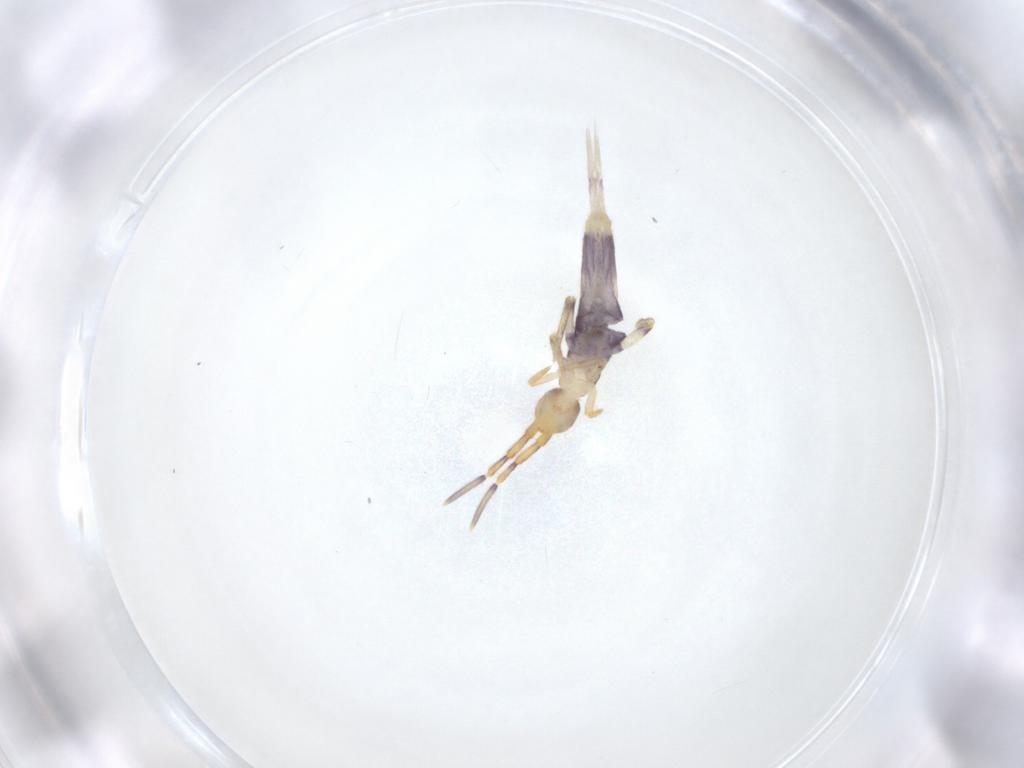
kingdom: Animalia
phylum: Arthropoda
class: Collembola
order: Entomobryomorpha
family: Entomobryidae
